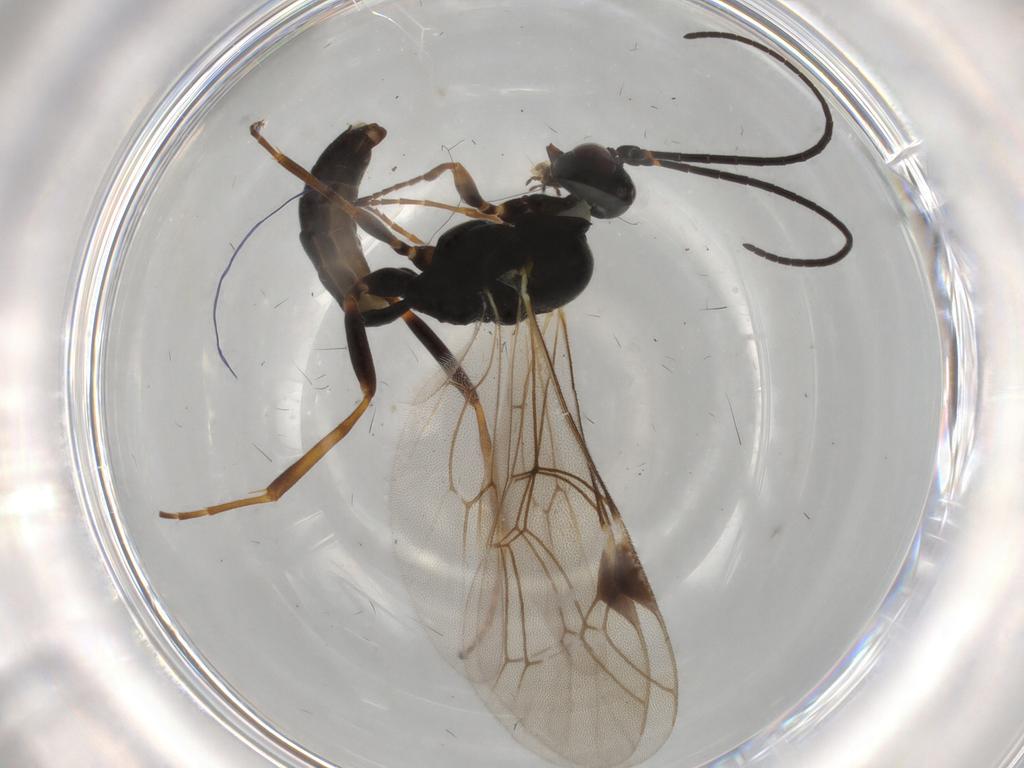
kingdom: Animalia
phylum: Arthropoda
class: Insecta
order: Hymenoptera
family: Ichneumonidae
